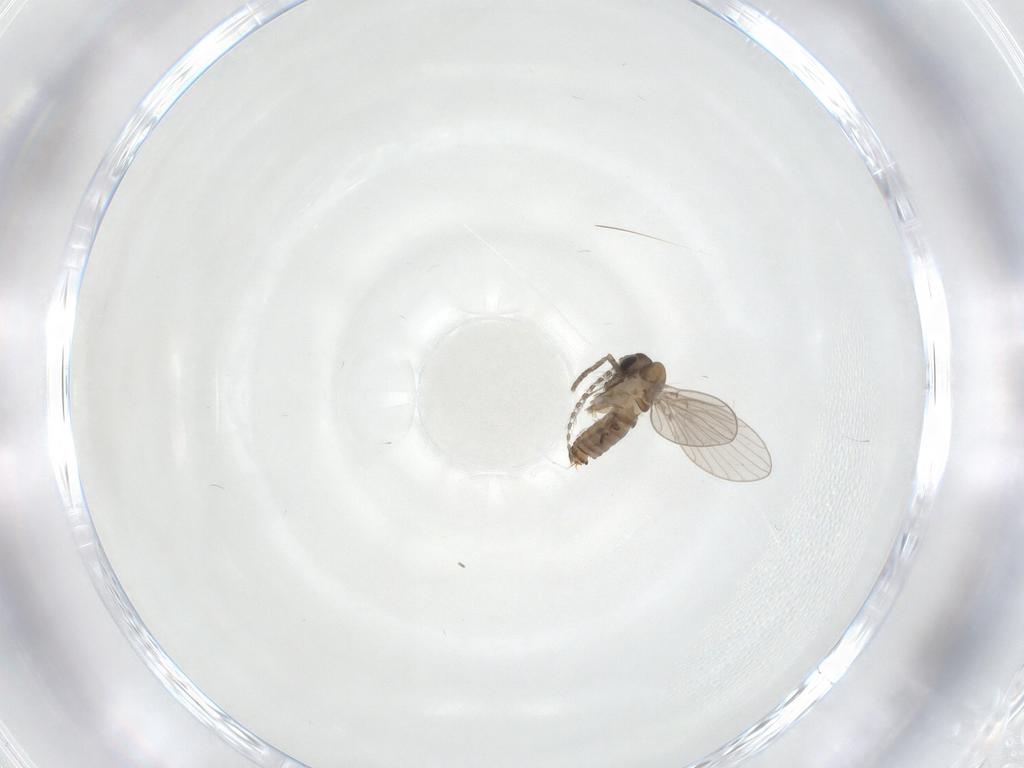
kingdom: Animalia
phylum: Arthropoda
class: Insecta
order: Diptera
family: Psychodidae
